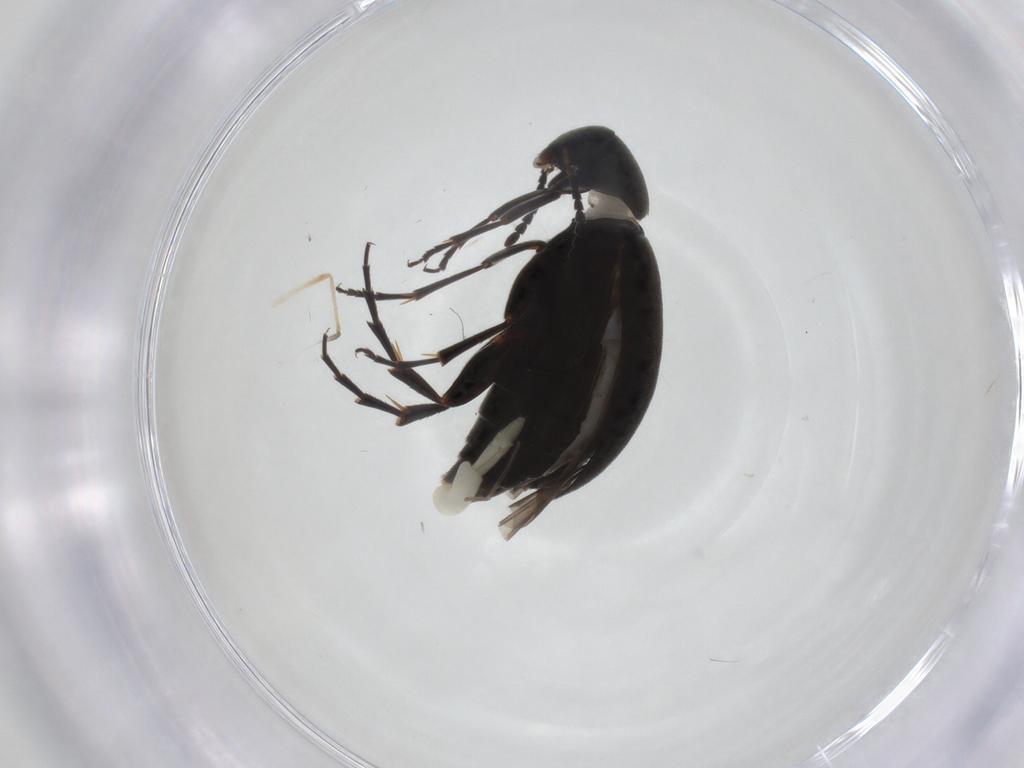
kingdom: Animalia
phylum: Arthropoda
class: Insecta
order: Coleoptera
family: Scraptiidae
